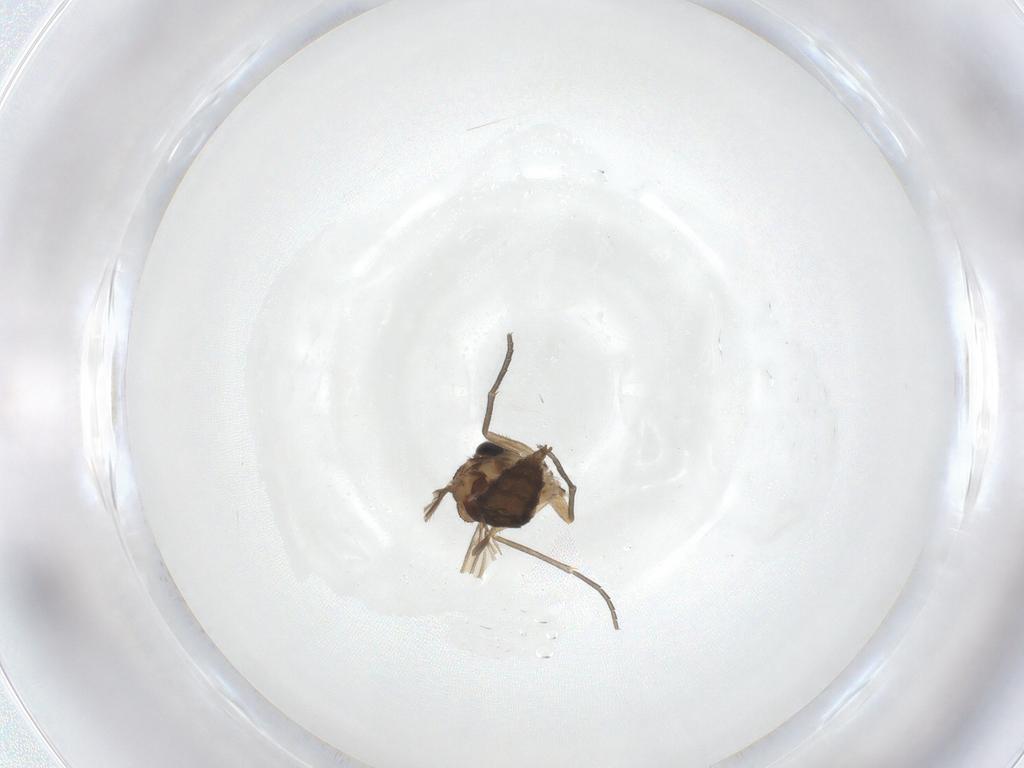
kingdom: Animalia
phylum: Arthropoda
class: Insecta
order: Diptera
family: Sciaridae
